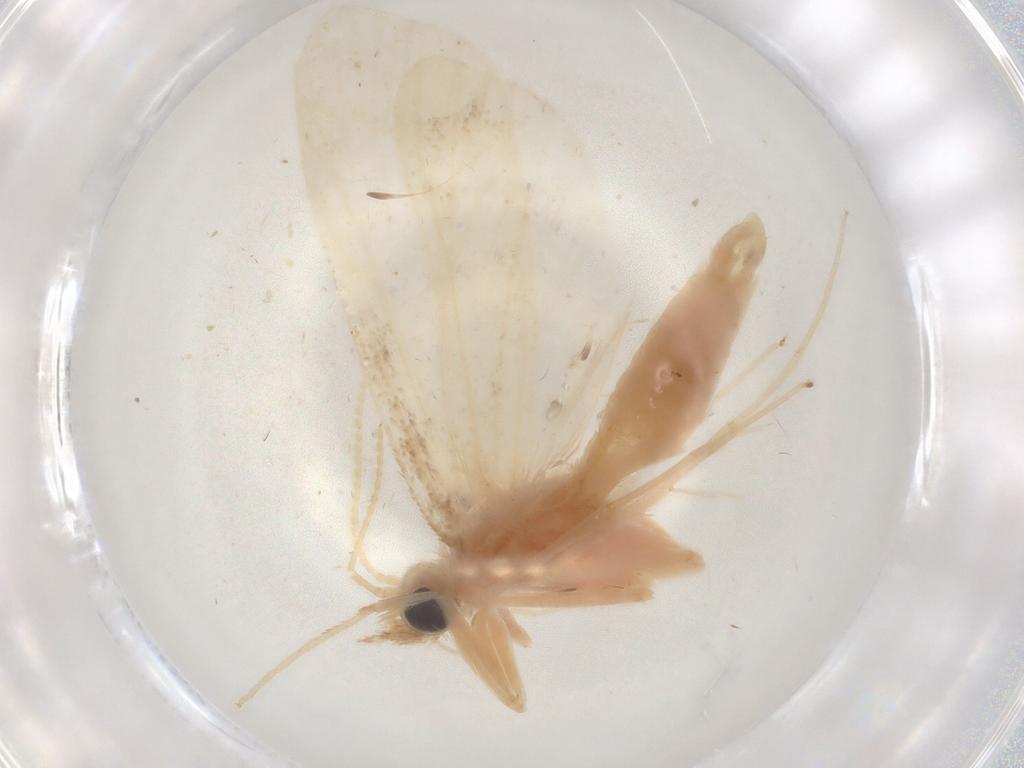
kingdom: Animalia
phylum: Arthropoda
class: Insecta
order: Lepidoptera
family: Crambidae
